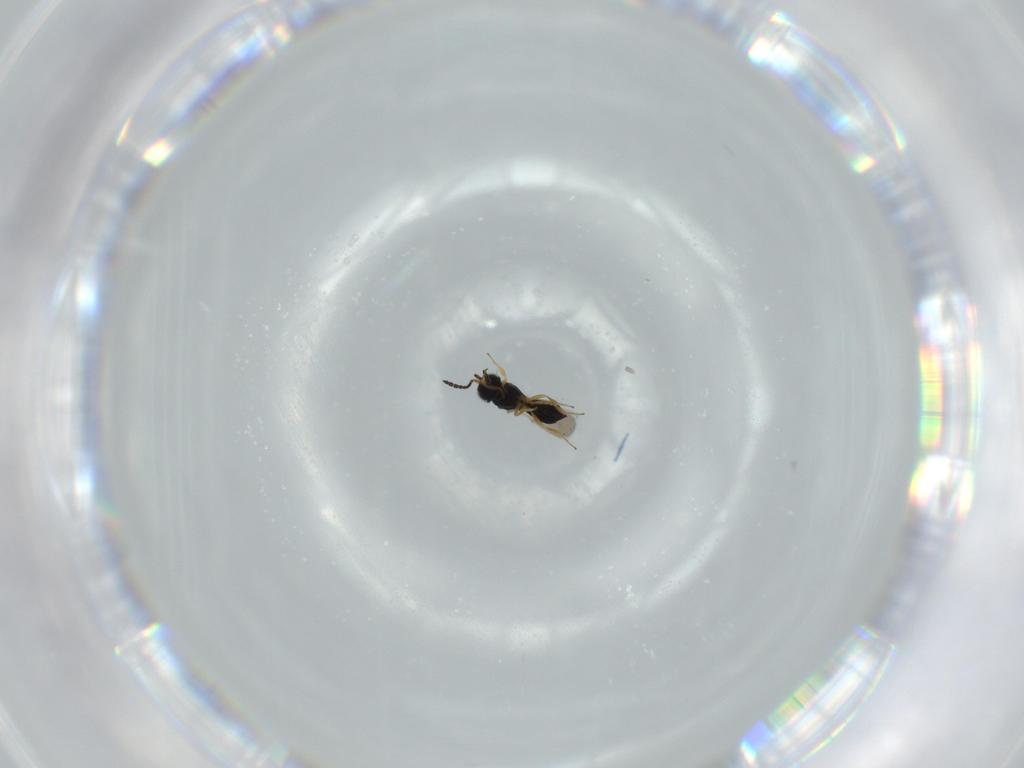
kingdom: Animalia
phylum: Arthropoda
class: Insecta
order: Hymenoptera
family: Scelionidae
